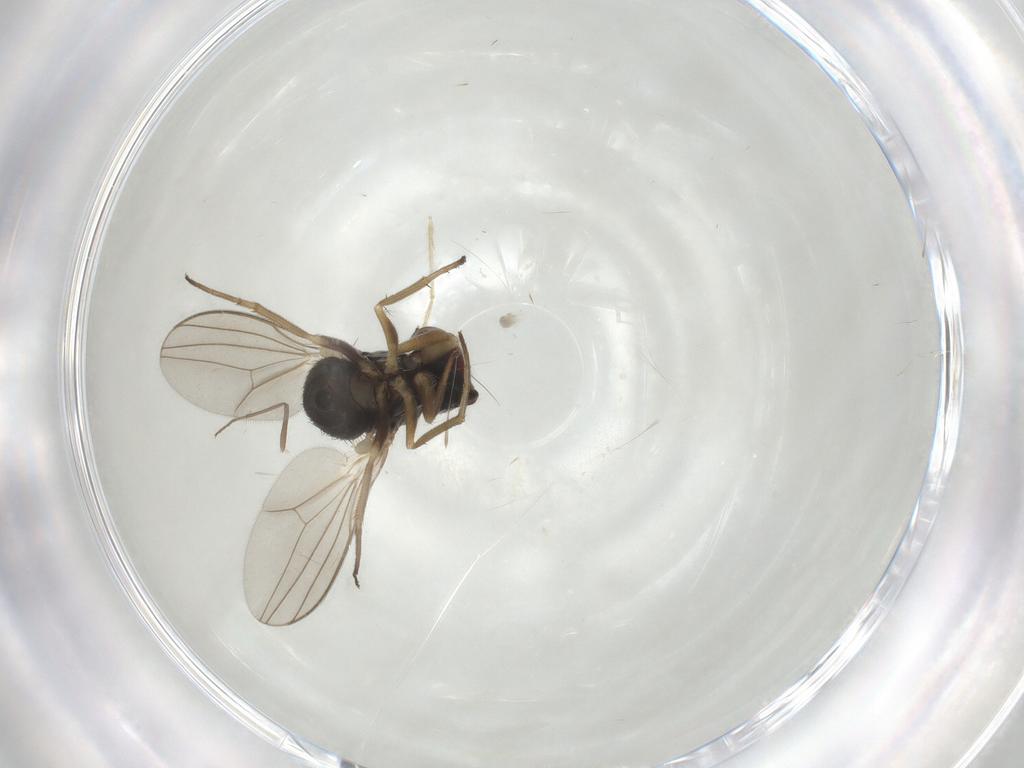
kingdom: Animalia
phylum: Arthropoda
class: Insecta
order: Diptera
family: Dolichopodidae
